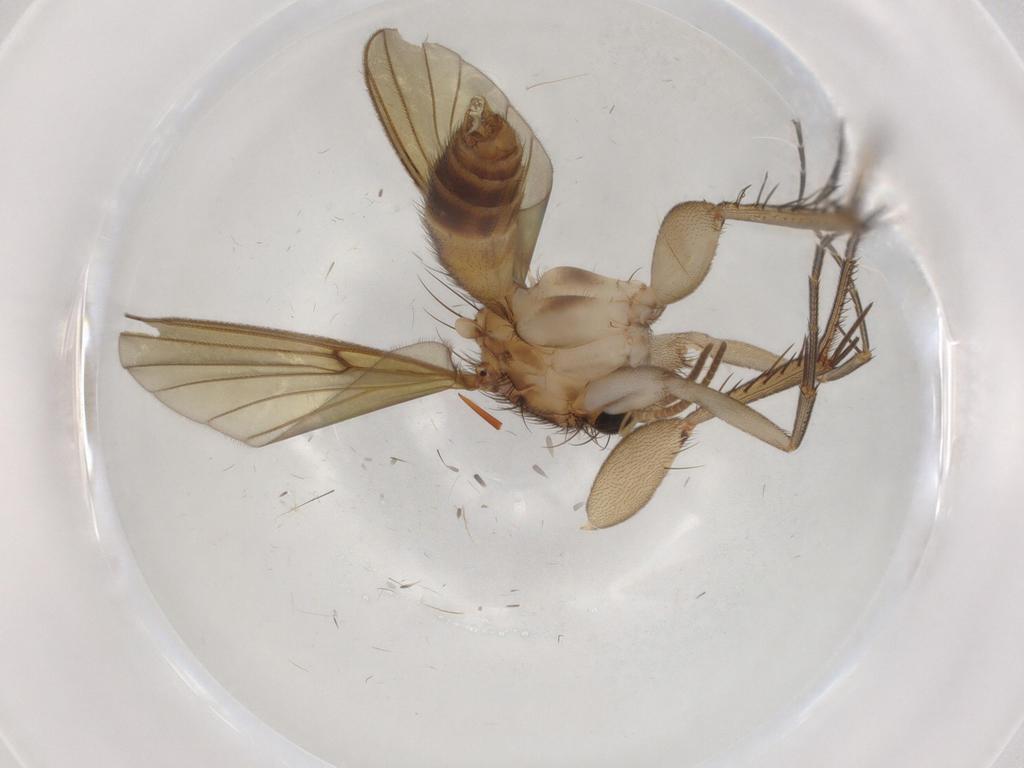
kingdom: Animalia
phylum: Arthropoda
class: Insecta
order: Diptera
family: Mycetophilidae
